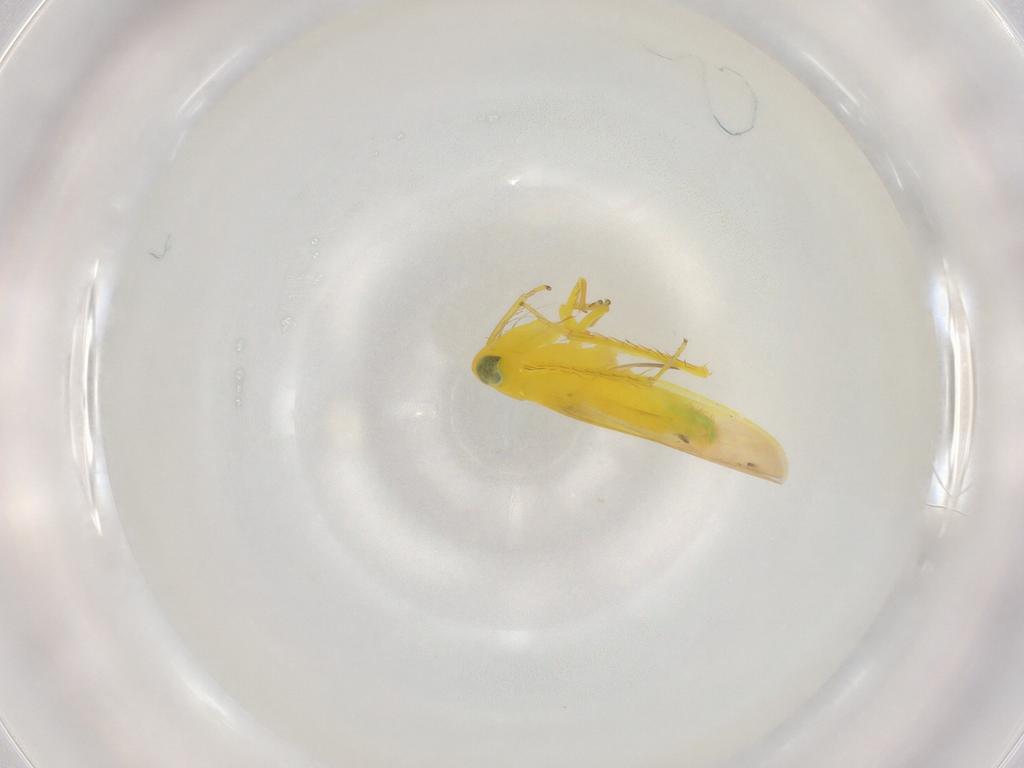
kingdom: Animalia
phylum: Arthropoda
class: Insecta
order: Hemiptera
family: Cicadellidae
